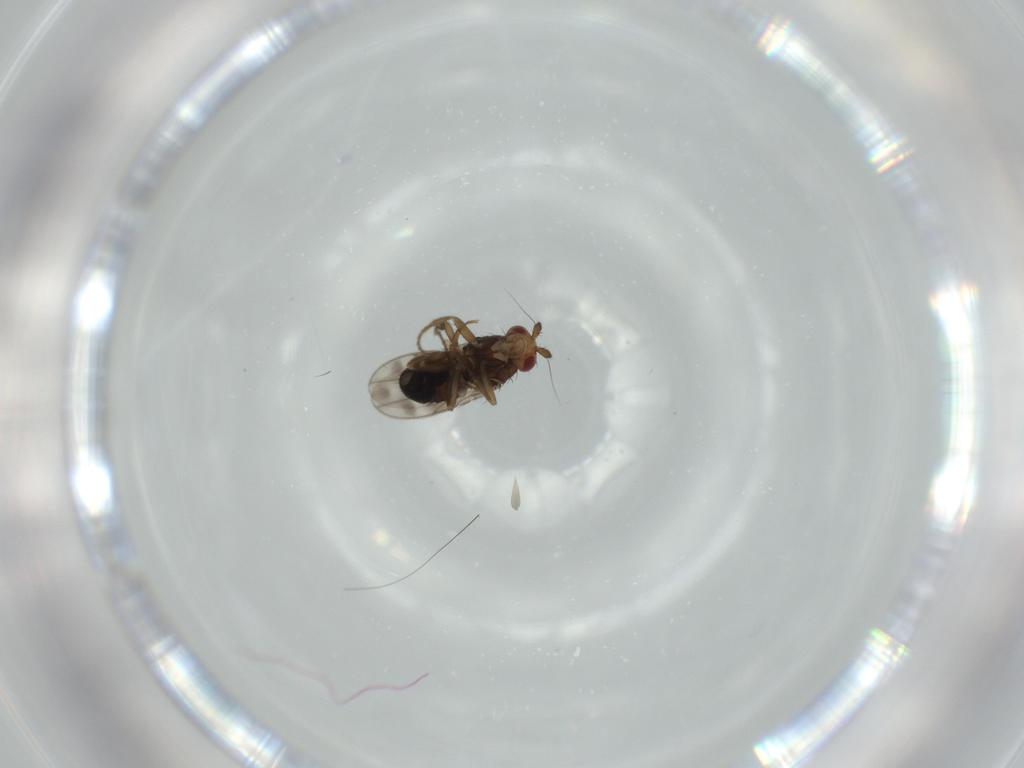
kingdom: Animalia
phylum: Arthropoda
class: Insecta
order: Diptera
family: Sphaeroceridae
